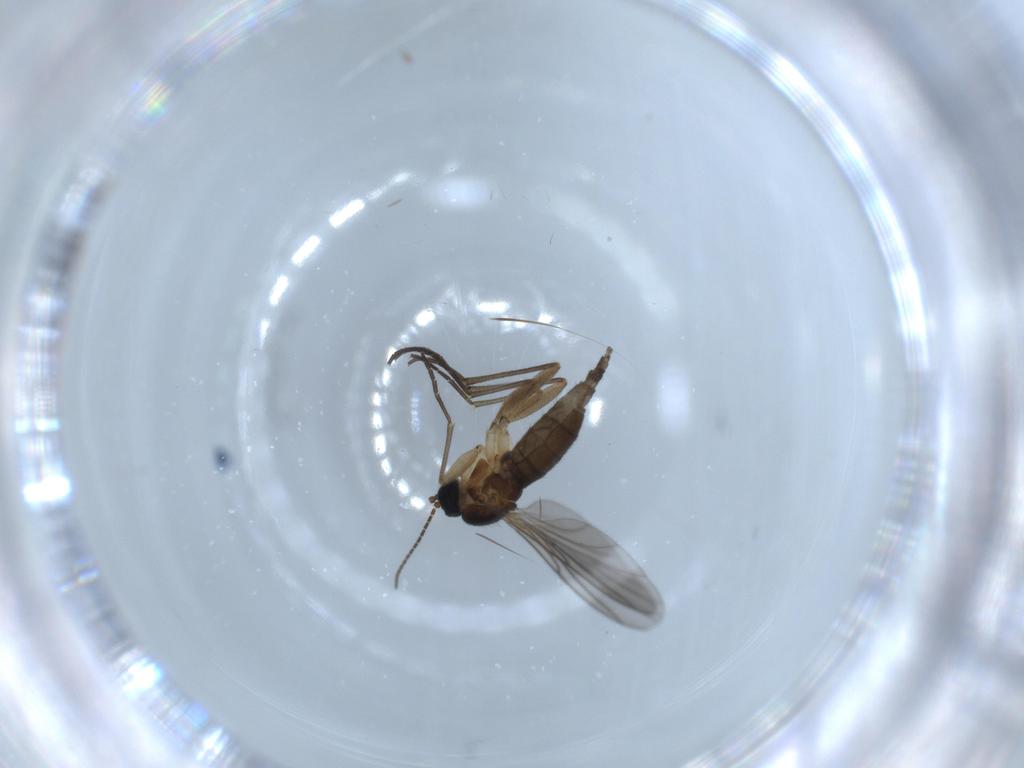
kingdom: Animalia
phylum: Arthropoda
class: Insecta
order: Diptera
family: Sciaridae
